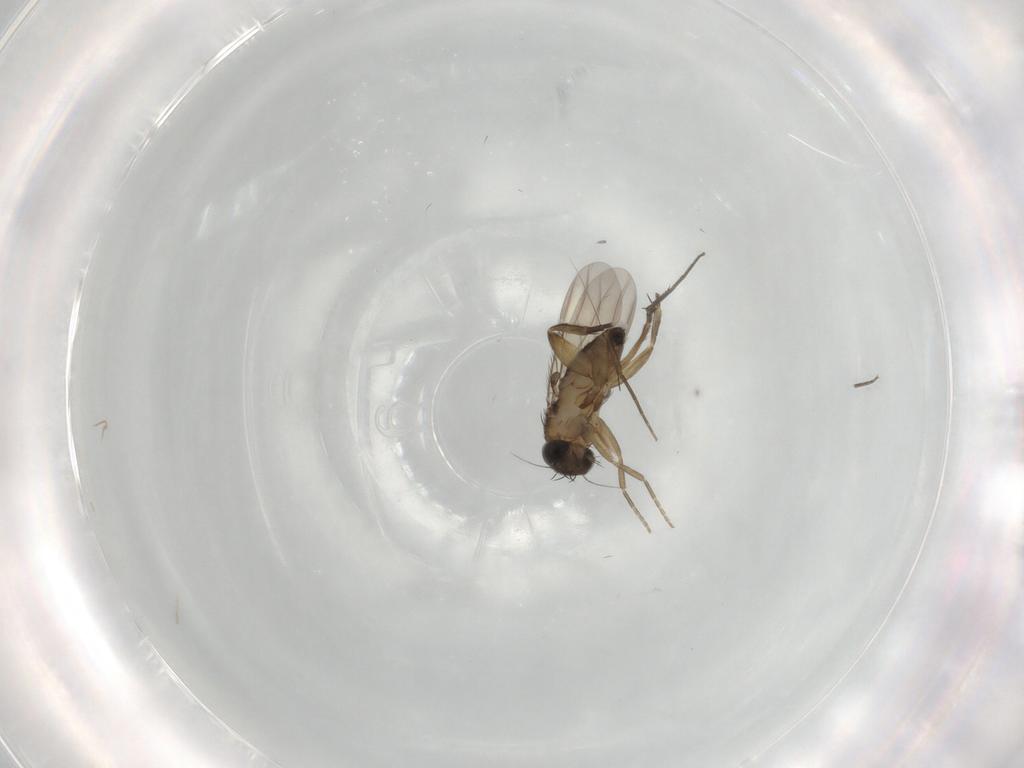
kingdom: Animalia
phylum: Arthropoda
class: Insecta
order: Diptera
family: Phoridae
